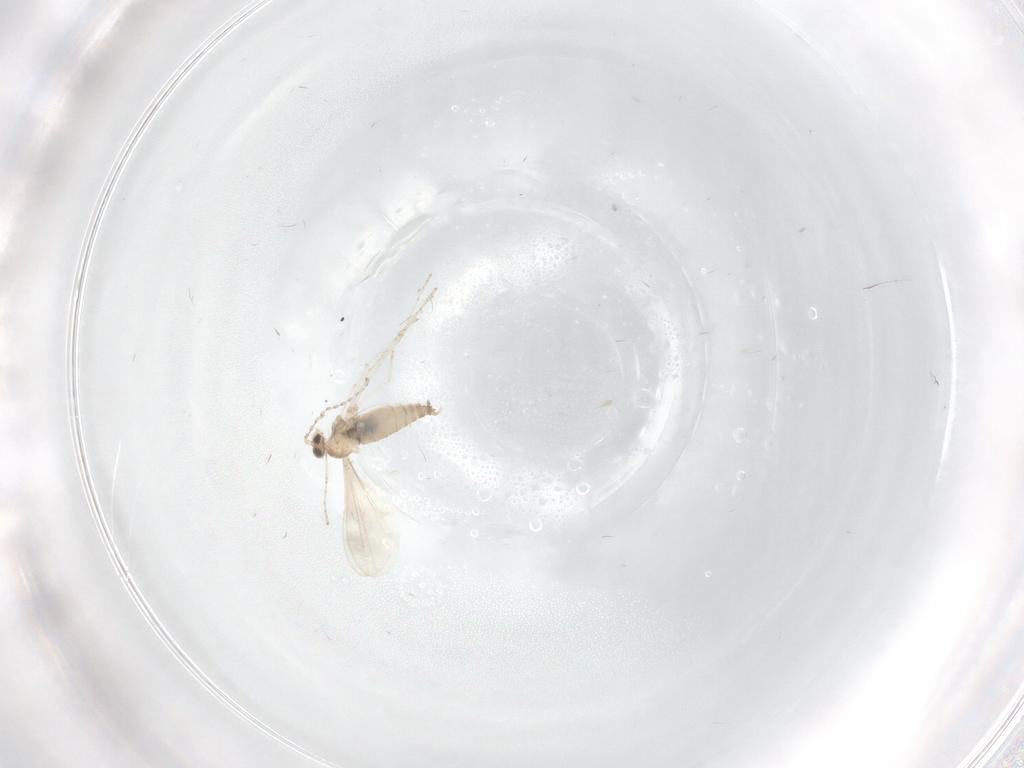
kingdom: Animalia
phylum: Arthropoda
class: Insecta
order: Diptera
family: Cecidomyiidae
